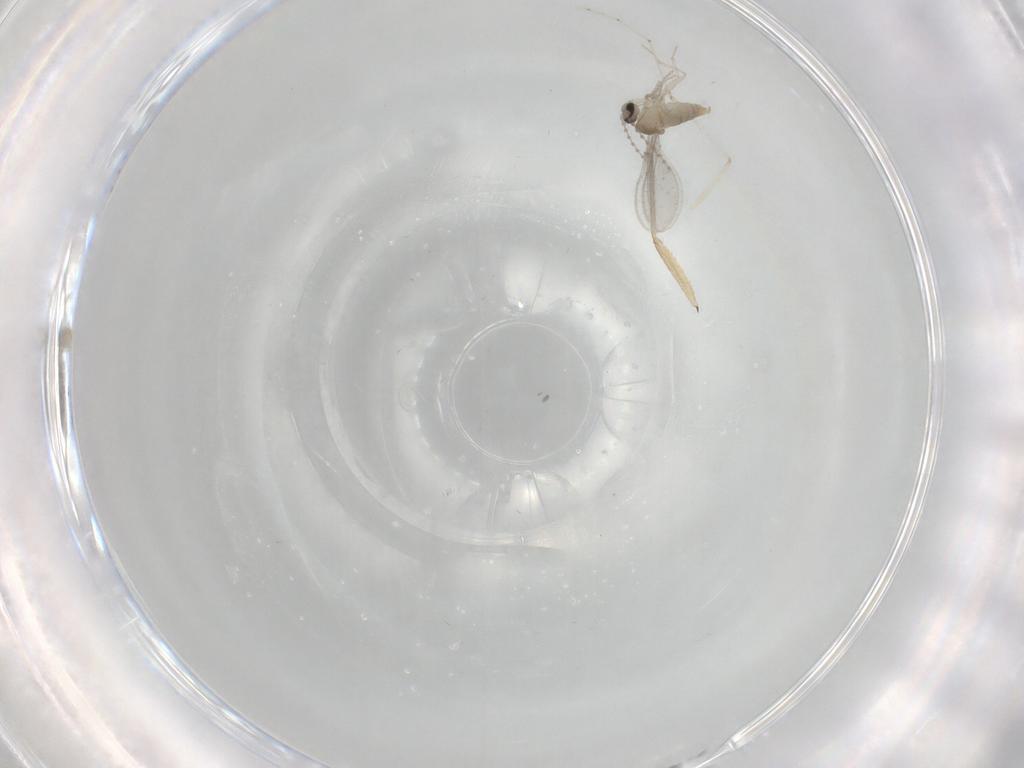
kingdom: Animalia
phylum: Arthropoda
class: Insecta
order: Diptera
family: Cecidomyiidae
